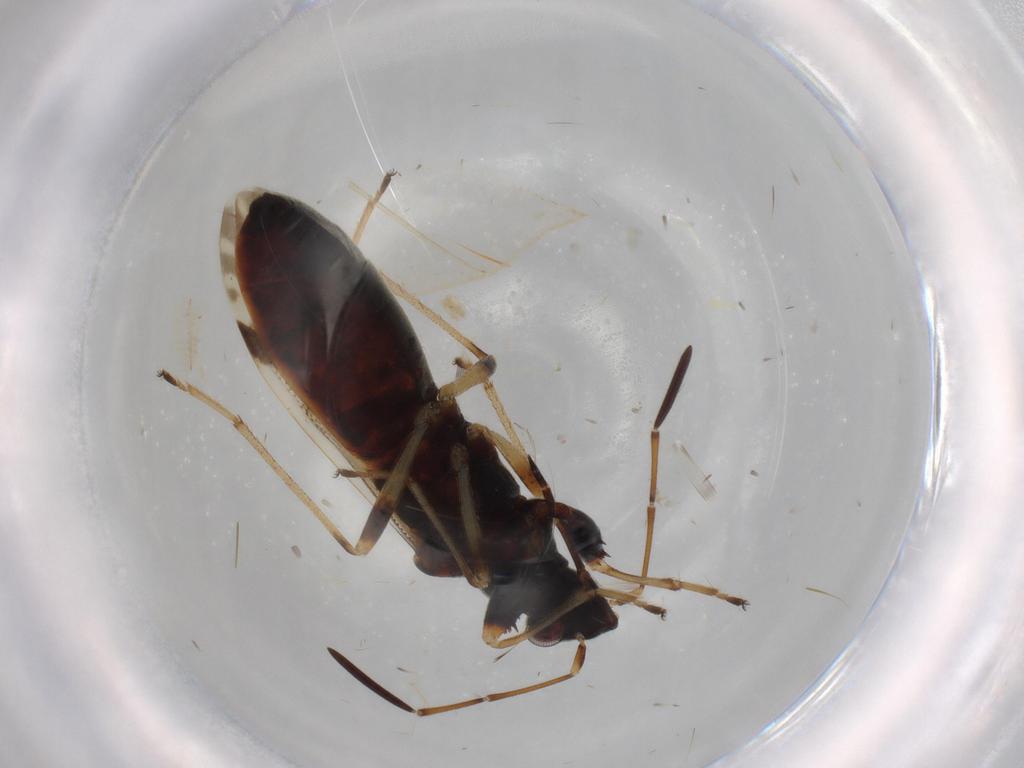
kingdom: Animalia
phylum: Arthropoda
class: Insecta
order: Hemiptera
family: Rhyparochromidae
